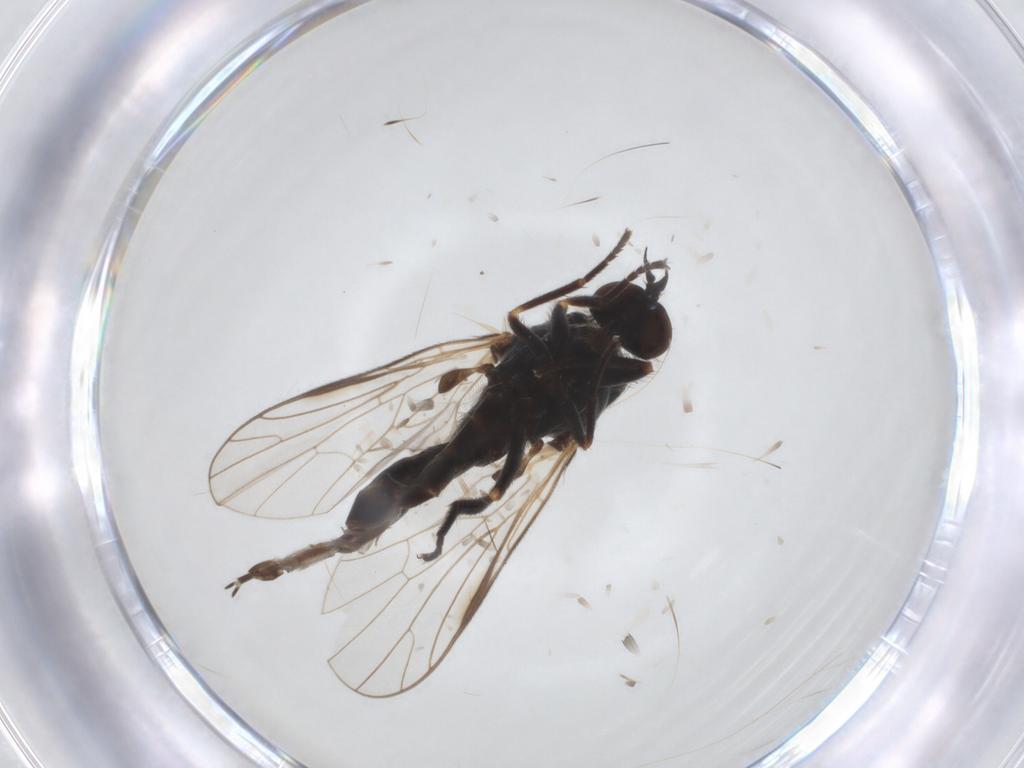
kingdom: Animalia
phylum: Arthropoda
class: Insecta
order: Diptera
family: Empididae
